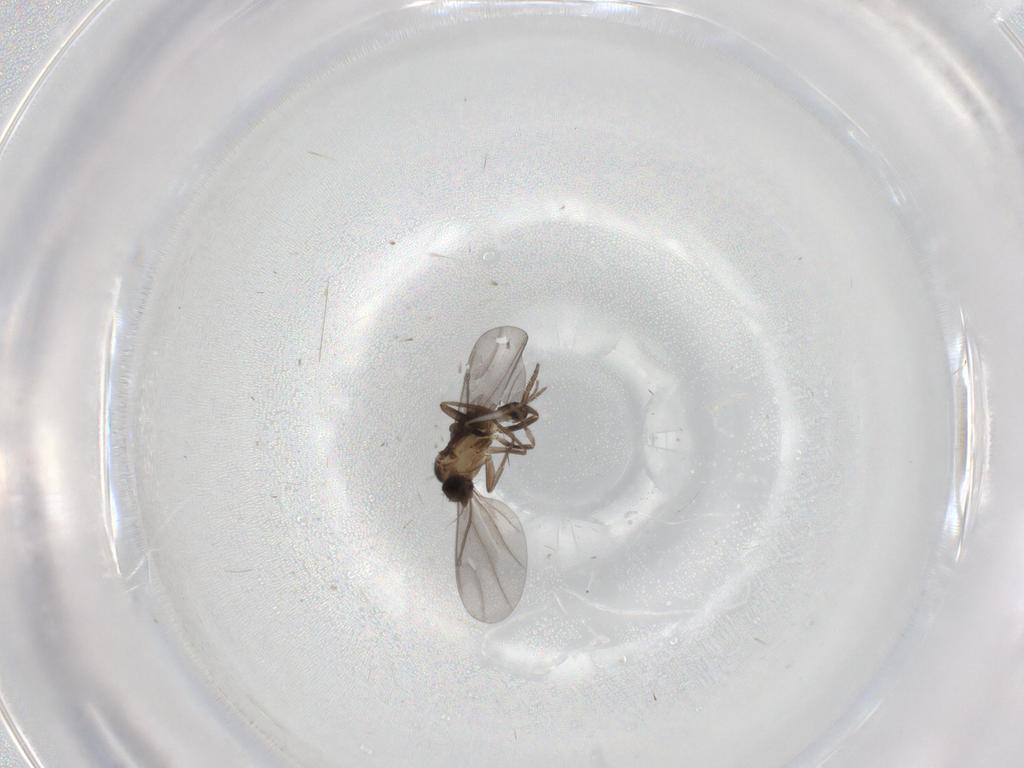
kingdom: Animalia
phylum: Arthropoda
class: Insecta
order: Diptera
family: Phoridae
